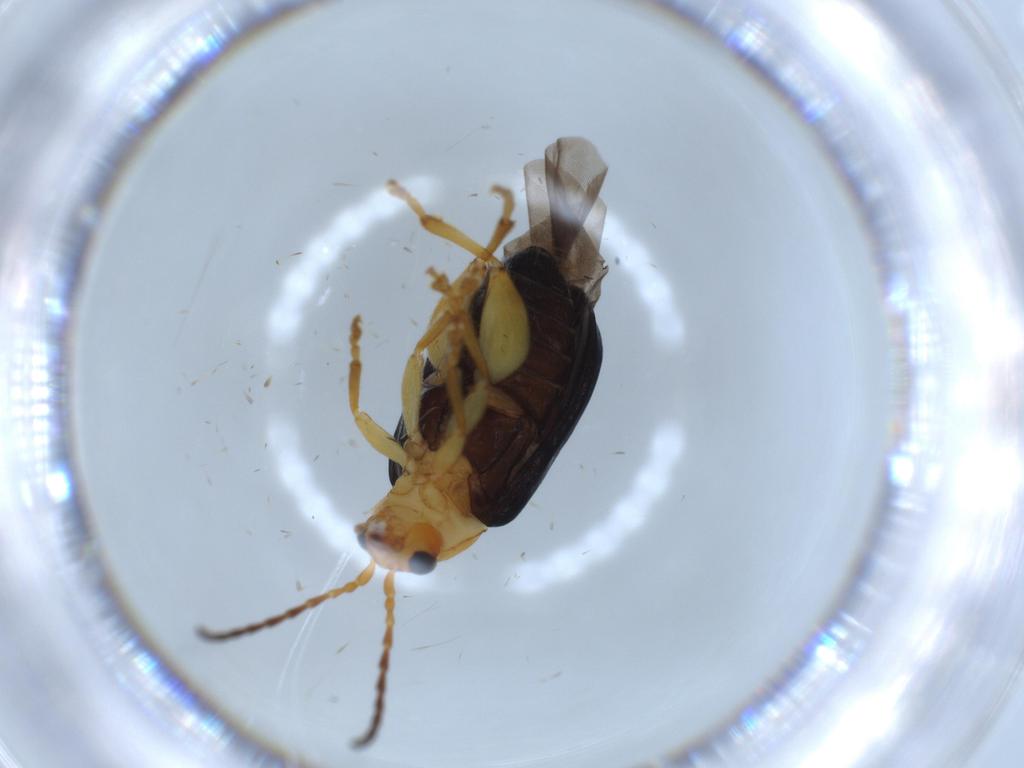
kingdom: Animalia
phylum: Arthropoda
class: Insecta
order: Coleoptera
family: Chrysomelidae
